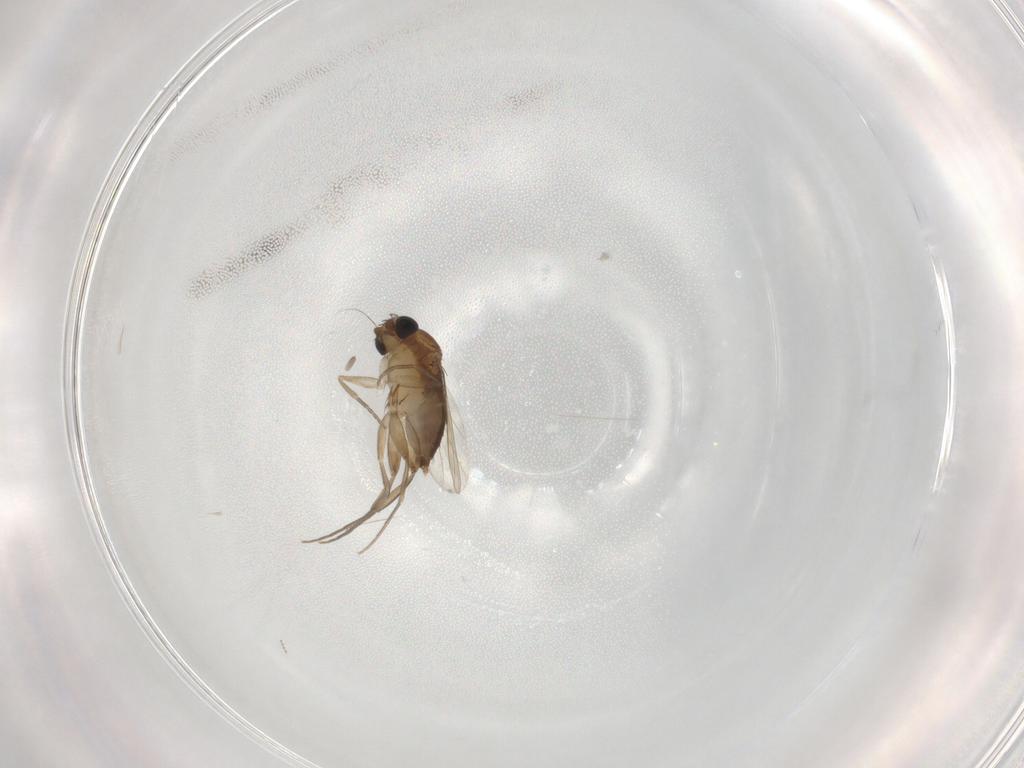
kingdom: Animalia
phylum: Arthropoda
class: Insecta
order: Diptera
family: Phoridae
